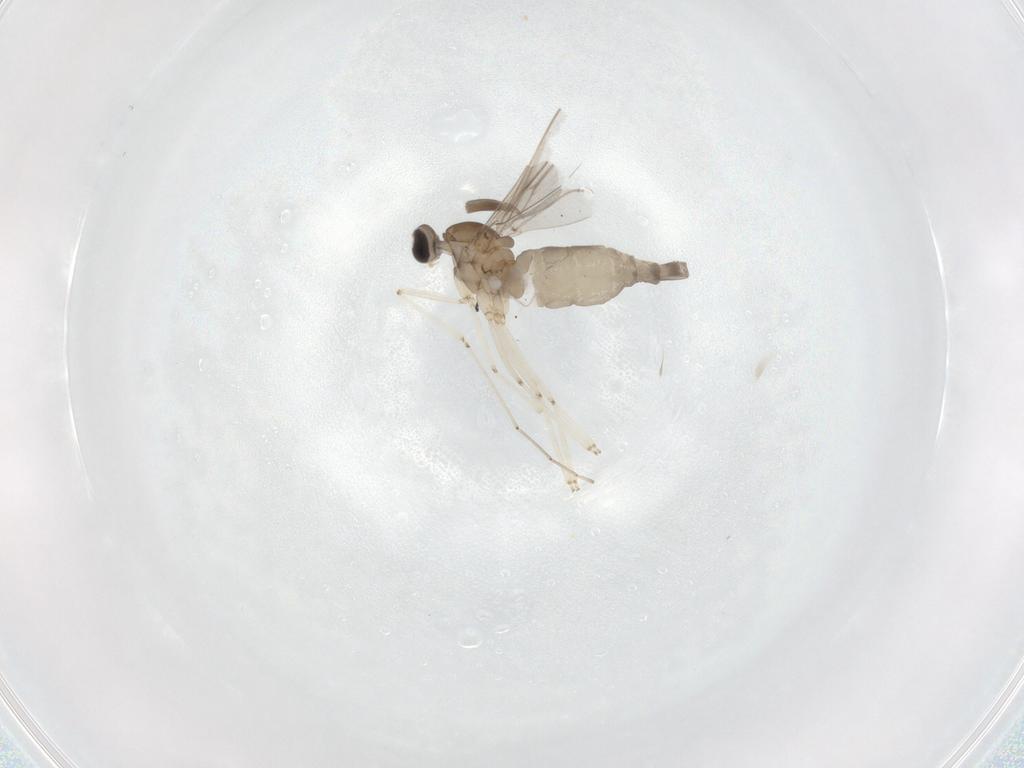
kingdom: Animalia
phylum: Arthropoda
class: Insecta
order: Diptera
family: Cecidomyiidae
